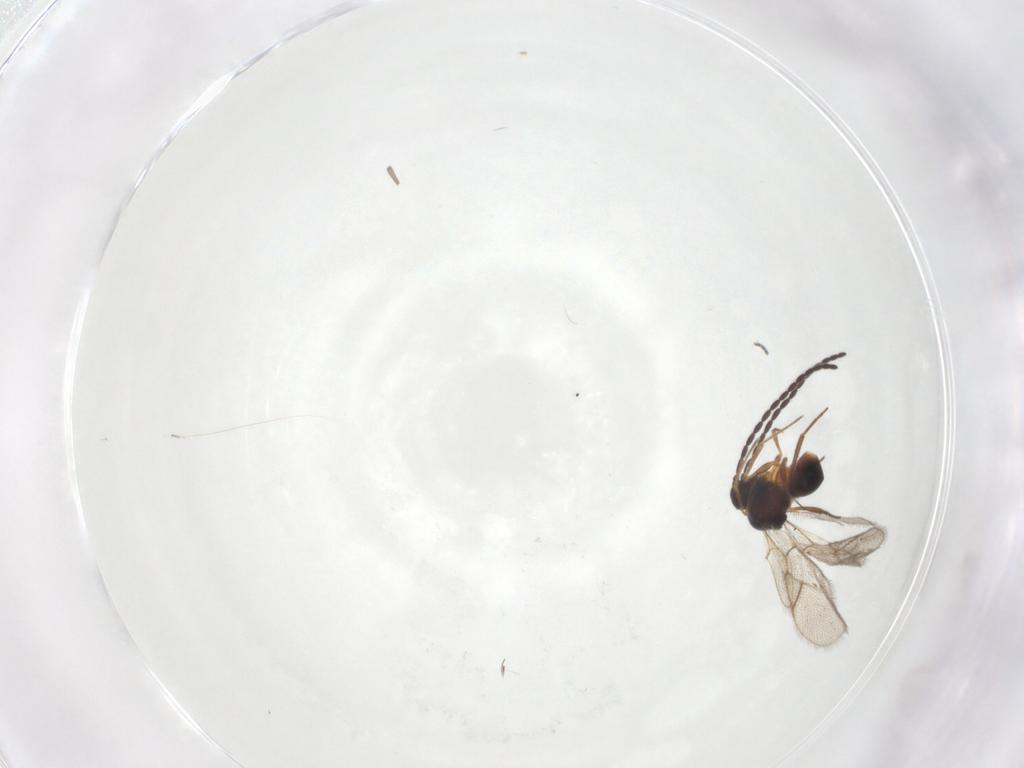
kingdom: Animalia
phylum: Arthropoda
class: Insecta
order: Hymenoptera
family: Figitidae
